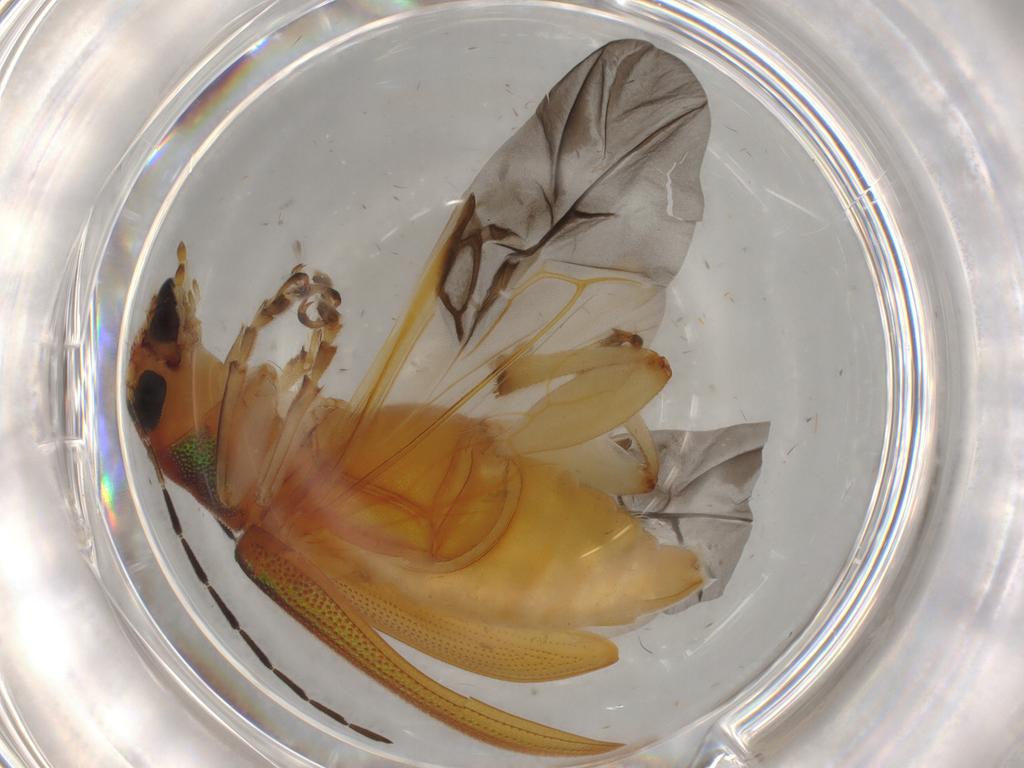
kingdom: Animalia
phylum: Arthropoda
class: Insecta
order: Coleoptera
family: Chrysomelidae
